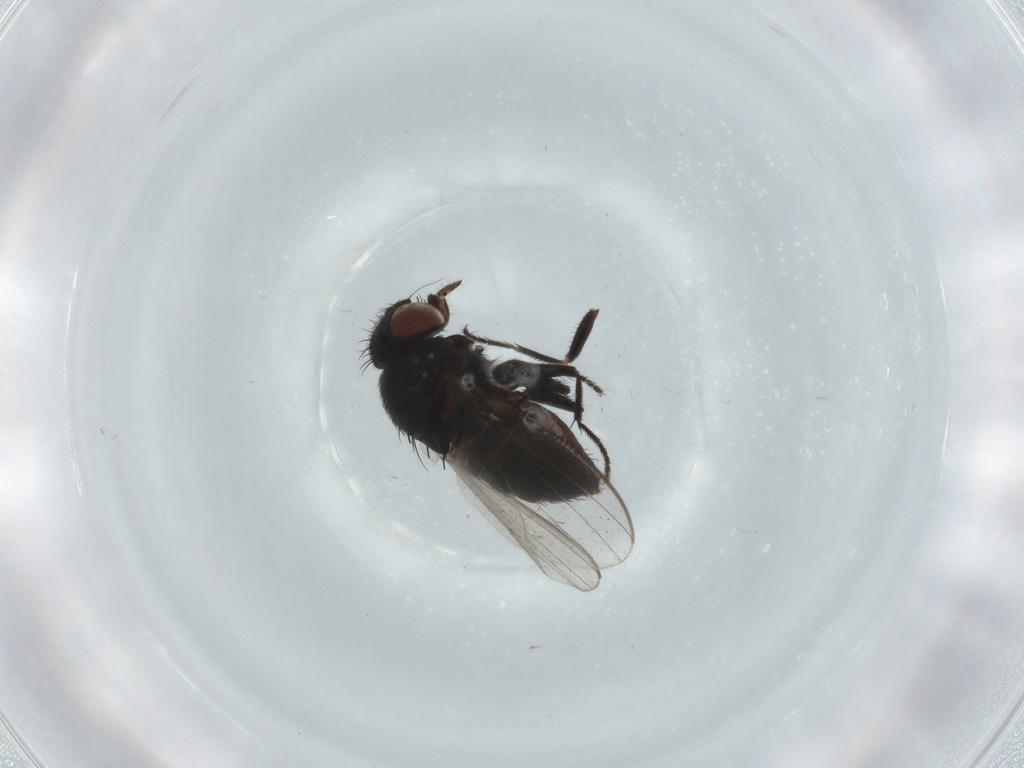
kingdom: Animalia
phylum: Arthropoda
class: Insecta
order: Diptera
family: Milichiidae
